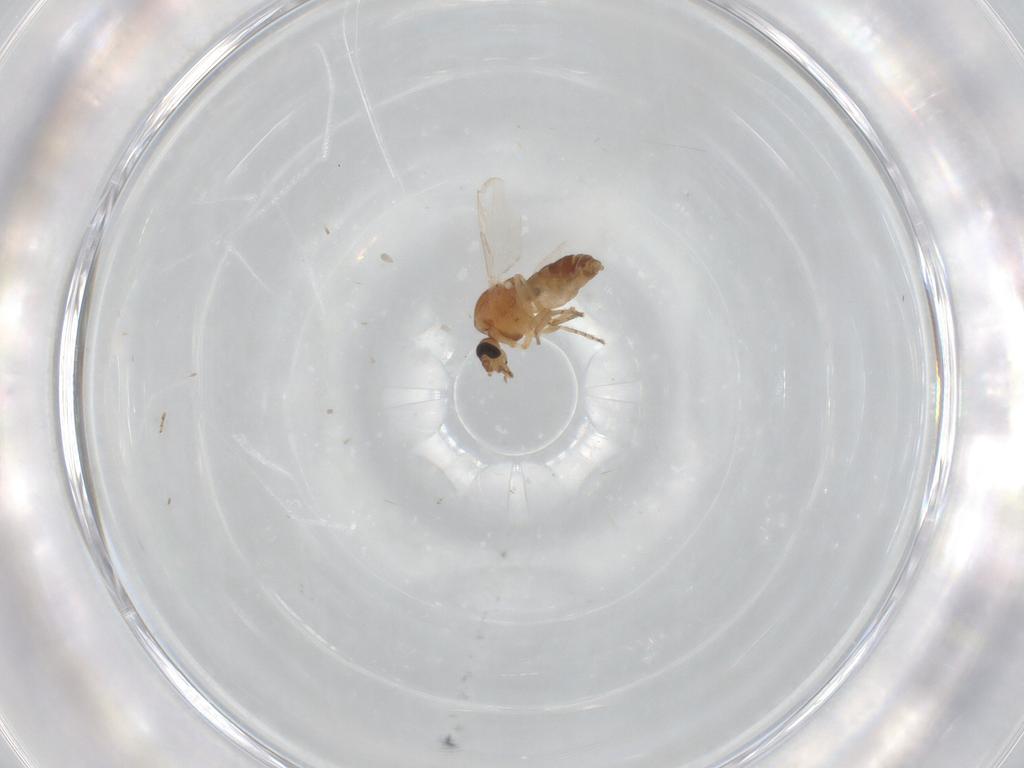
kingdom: Animalia
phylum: Arthropoda
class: Insecta
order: Diptera
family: Ceratopogonidae
